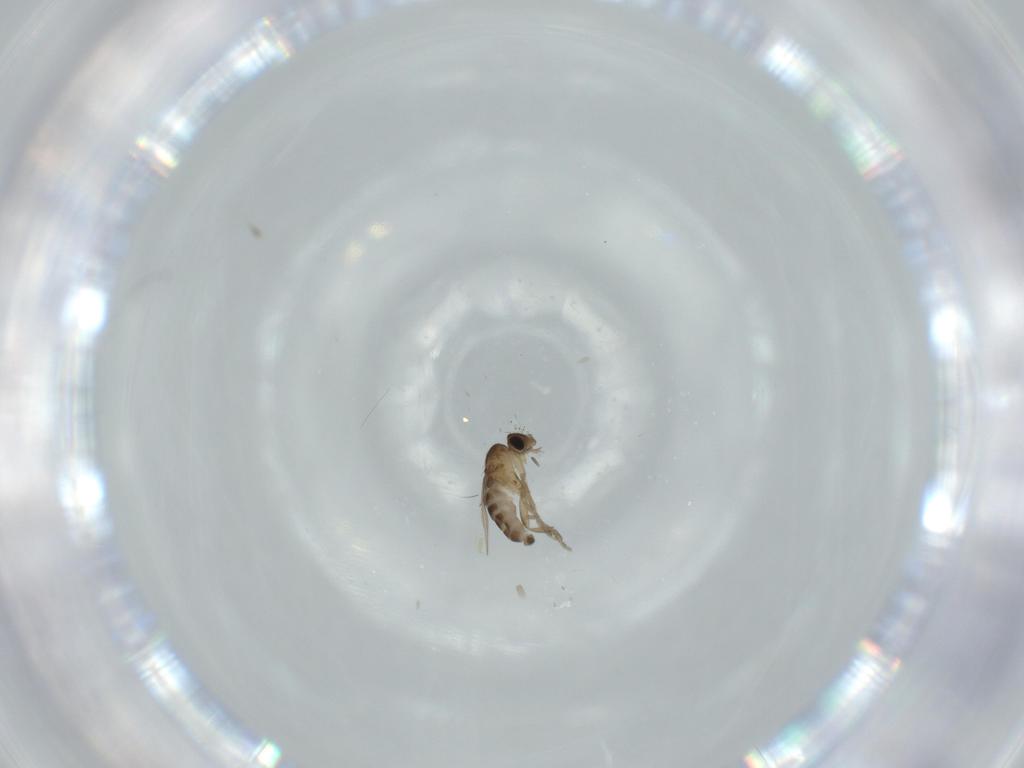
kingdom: Animalia
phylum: Arthropoda
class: Insecta
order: Diptera
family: Phoridae
